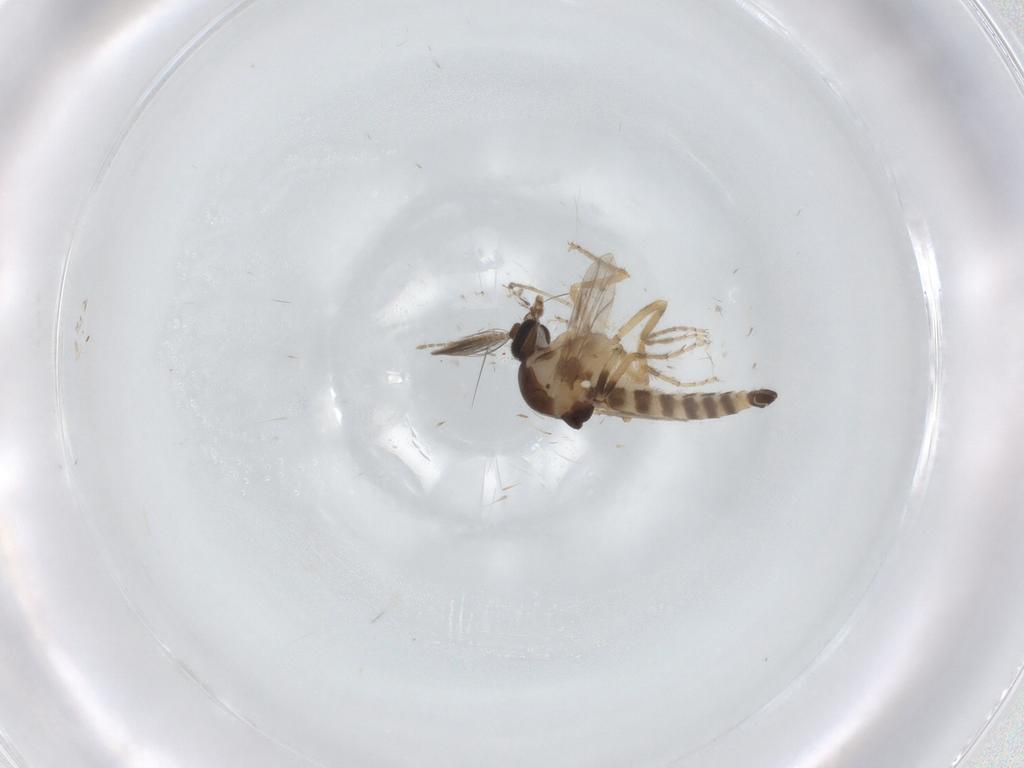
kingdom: Animalia
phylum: Arthropoda
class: Insecta
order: Diptera
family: Ceratopogonidae
